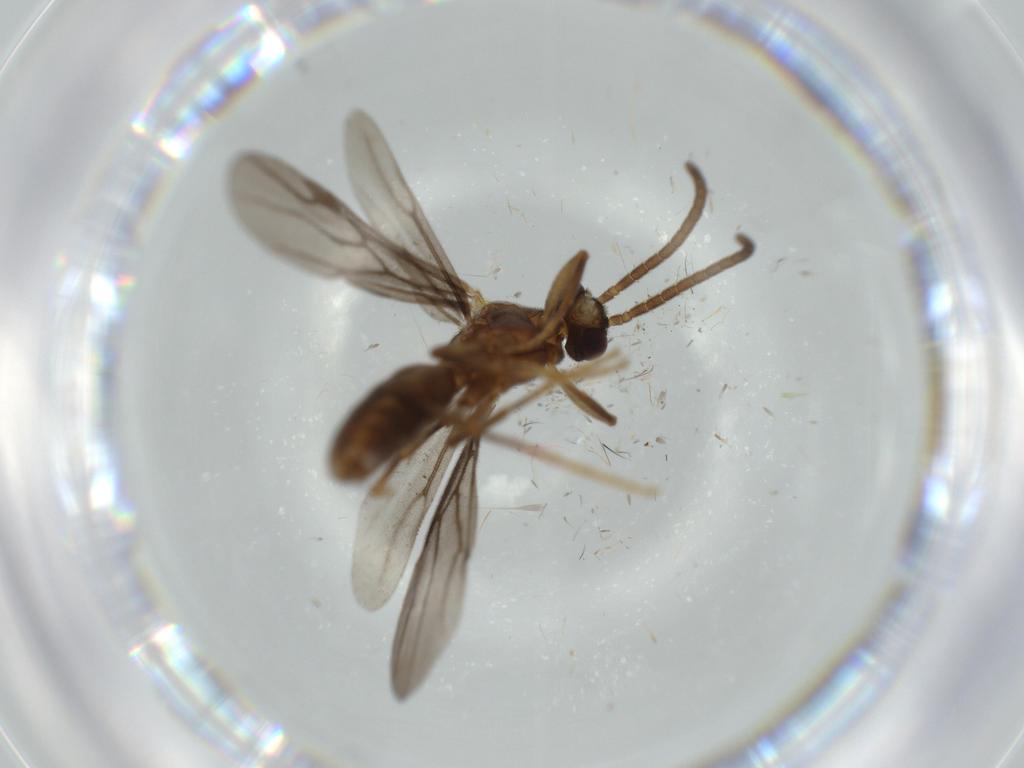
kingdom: Animalia
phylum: Arthropoda
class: Insecta
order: Hymenoptera
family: Formicidae
